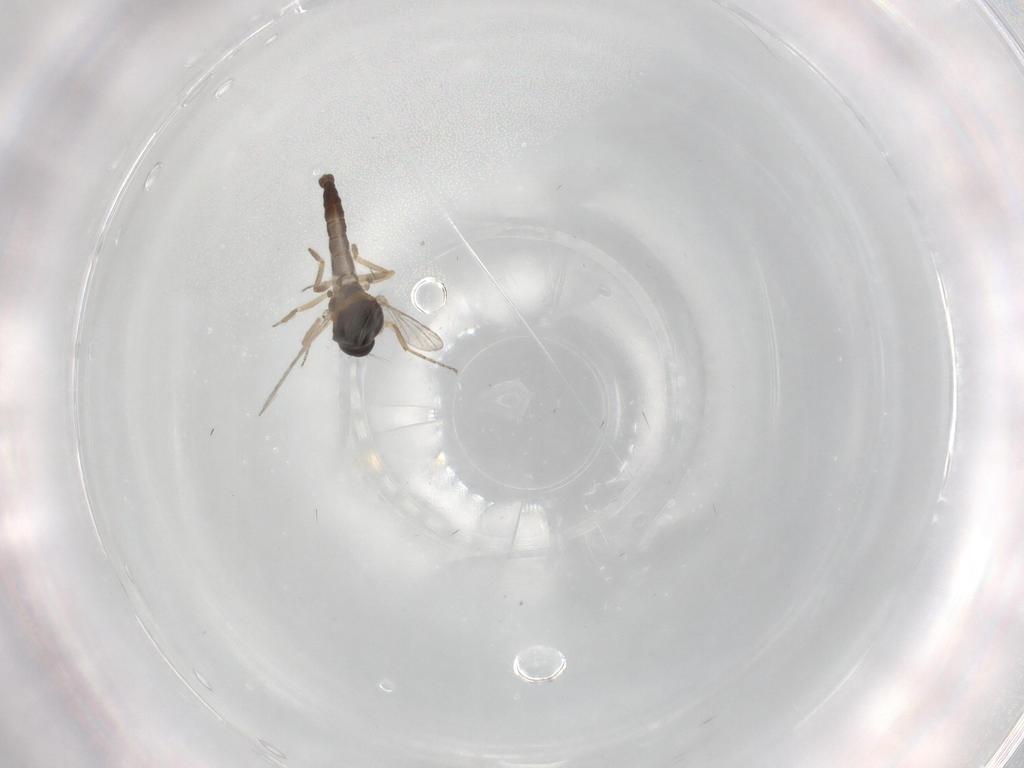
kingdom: Animalia
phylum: Arthropoda
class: Insecta
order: Diptera
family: Ceratopogonidae
